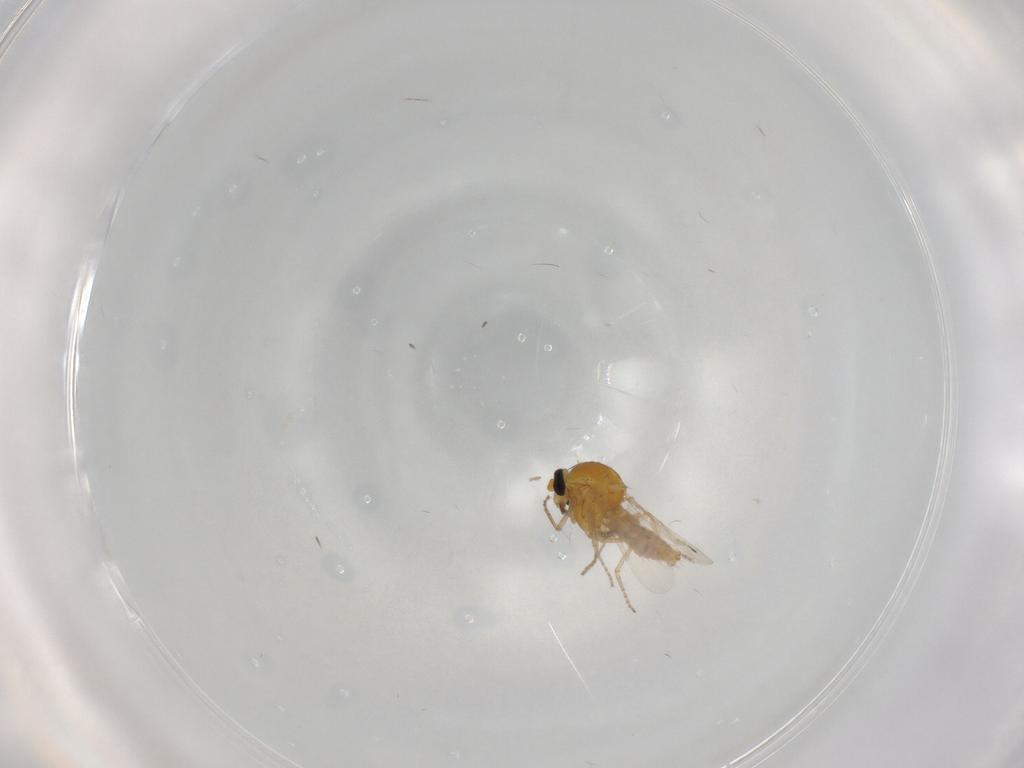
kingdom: Animalia
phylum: Arthropoda
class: Insecta
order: Diptera
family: Ceratopogonidae
